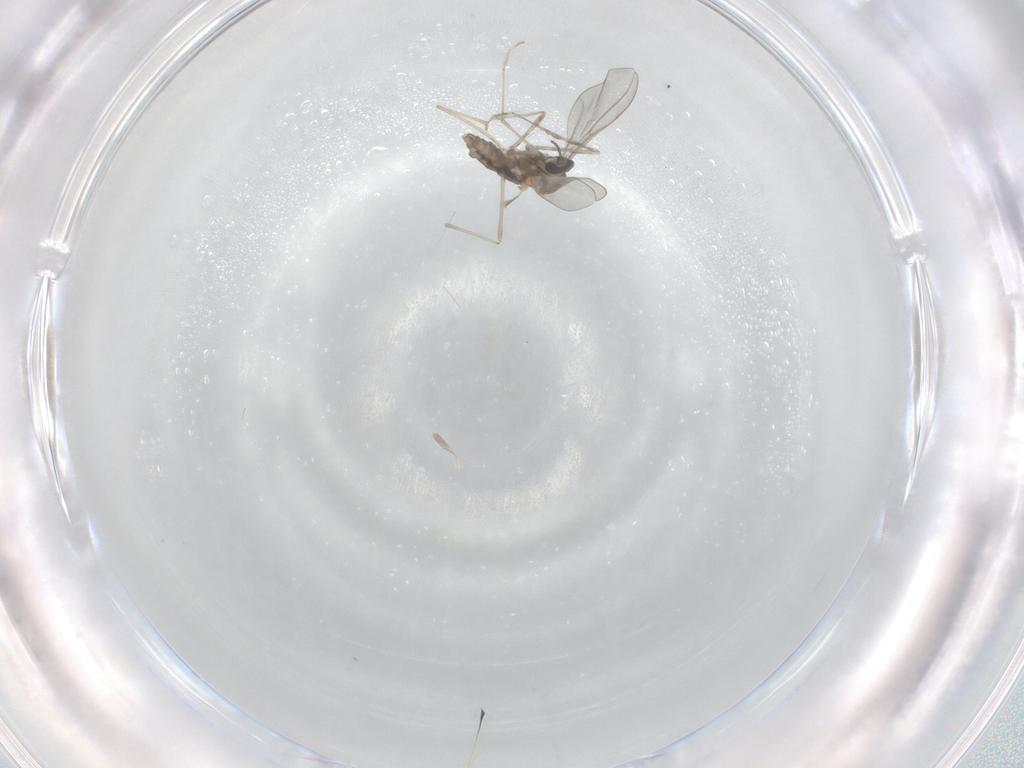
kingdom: Animalia
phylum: Arthropoda
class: Insecta
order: Diptera
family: Cecidomyiidae
